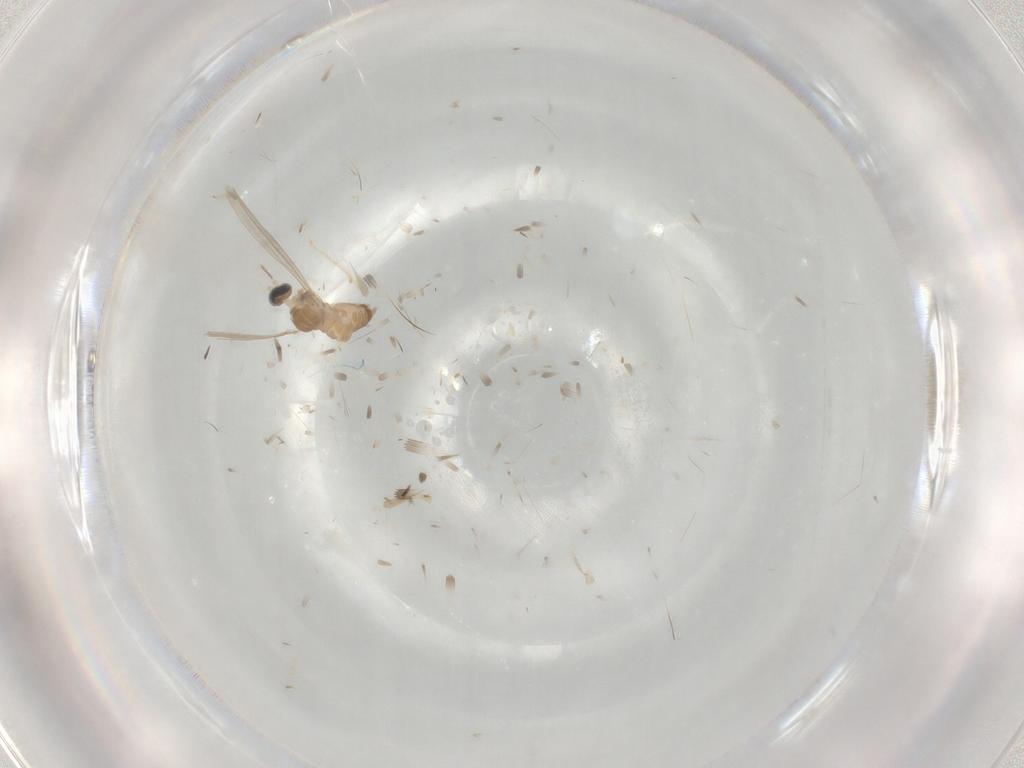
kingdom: Animalia
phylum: Arthropoda
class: Insecta
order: Diptera
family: Cecidomyiidae
